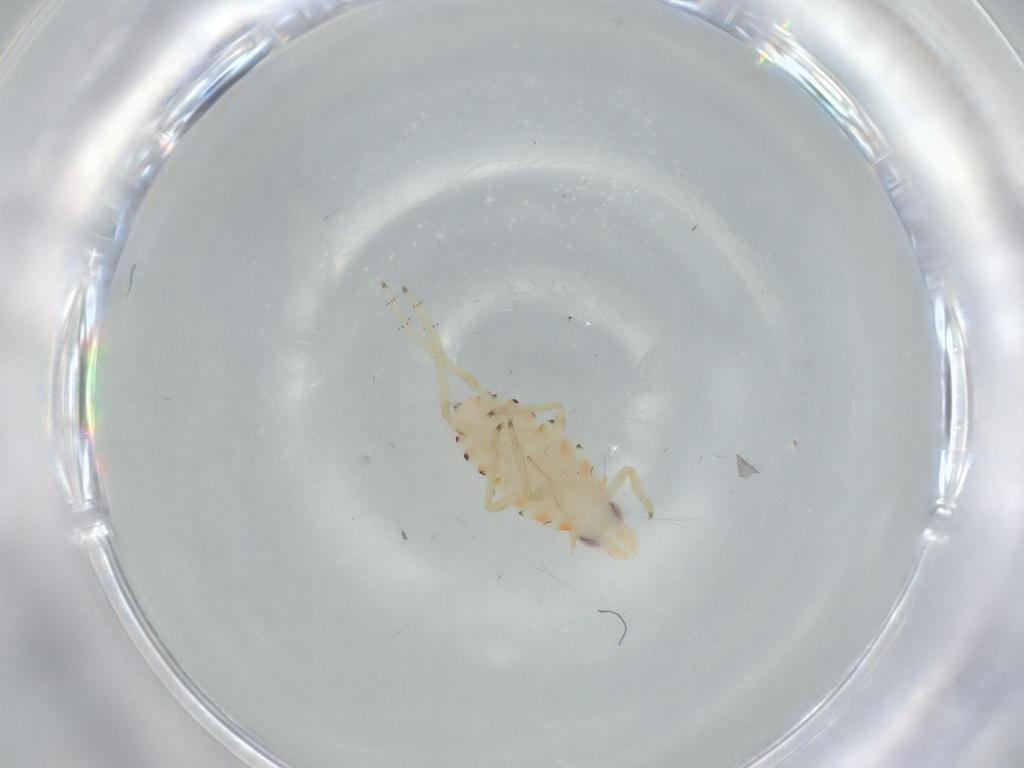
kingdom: Animalia
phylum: Arthropoda
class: Insecta
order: Hemiptera
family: Tropiduchidae
